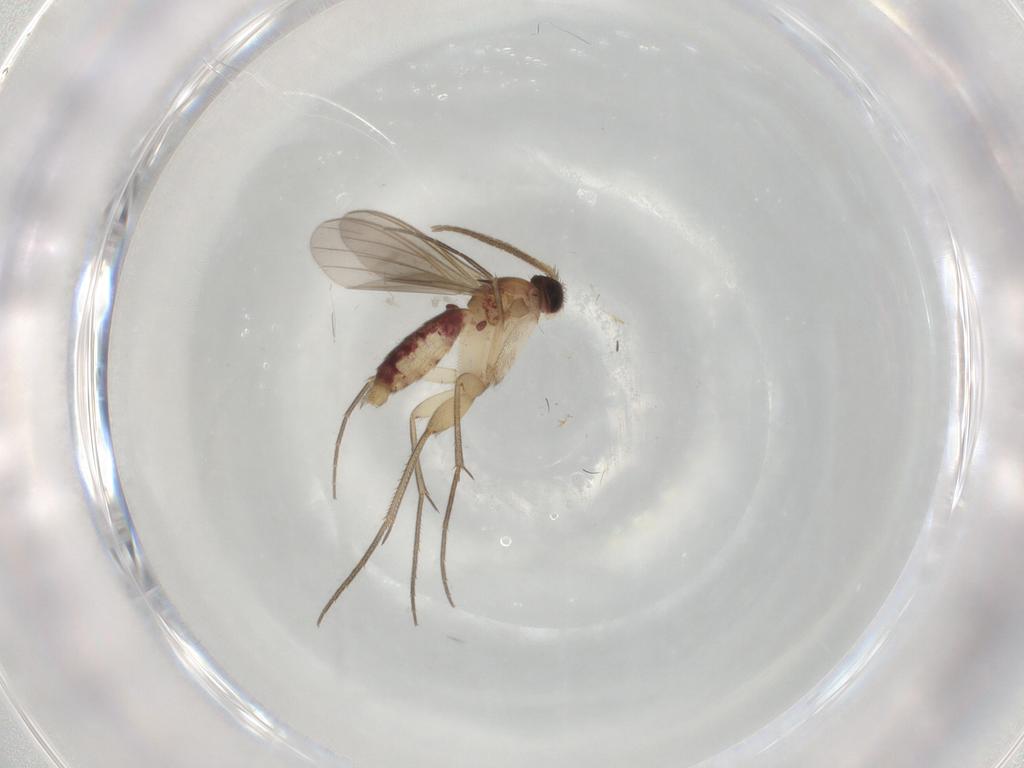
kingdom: Animalia
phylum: Arthropoda
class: Insecta
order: Diptera
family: Mycetophilidae
